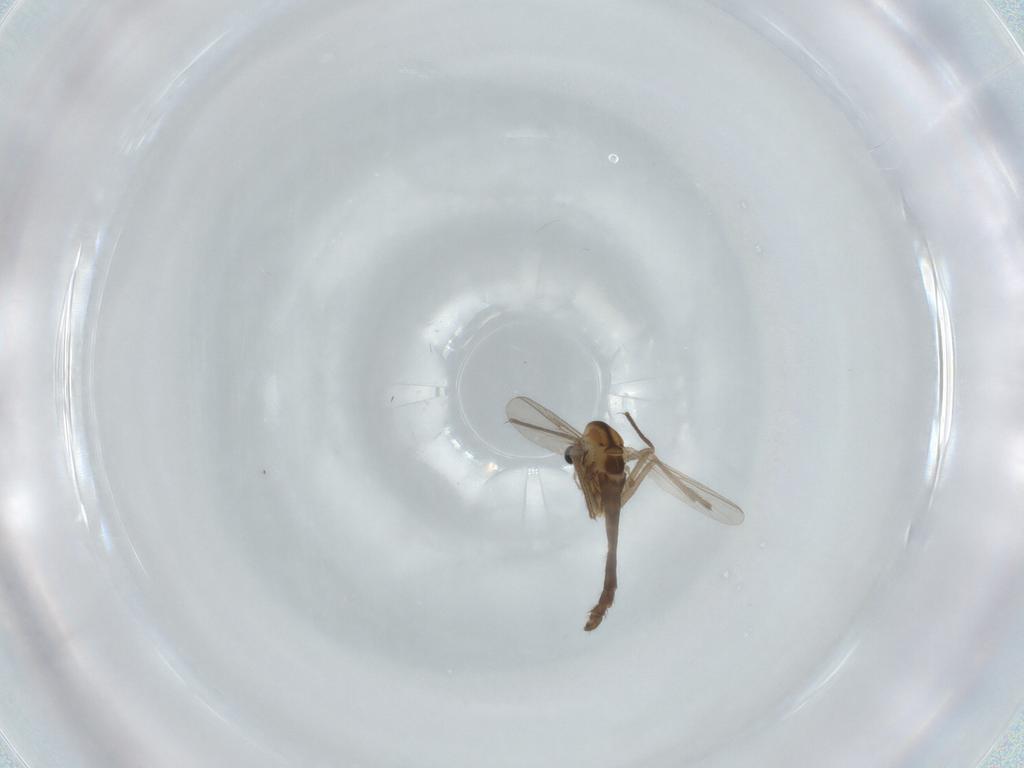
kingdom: Animalia
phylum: Arthropoda
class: Insecta
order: Diptera
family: Chironomidae
